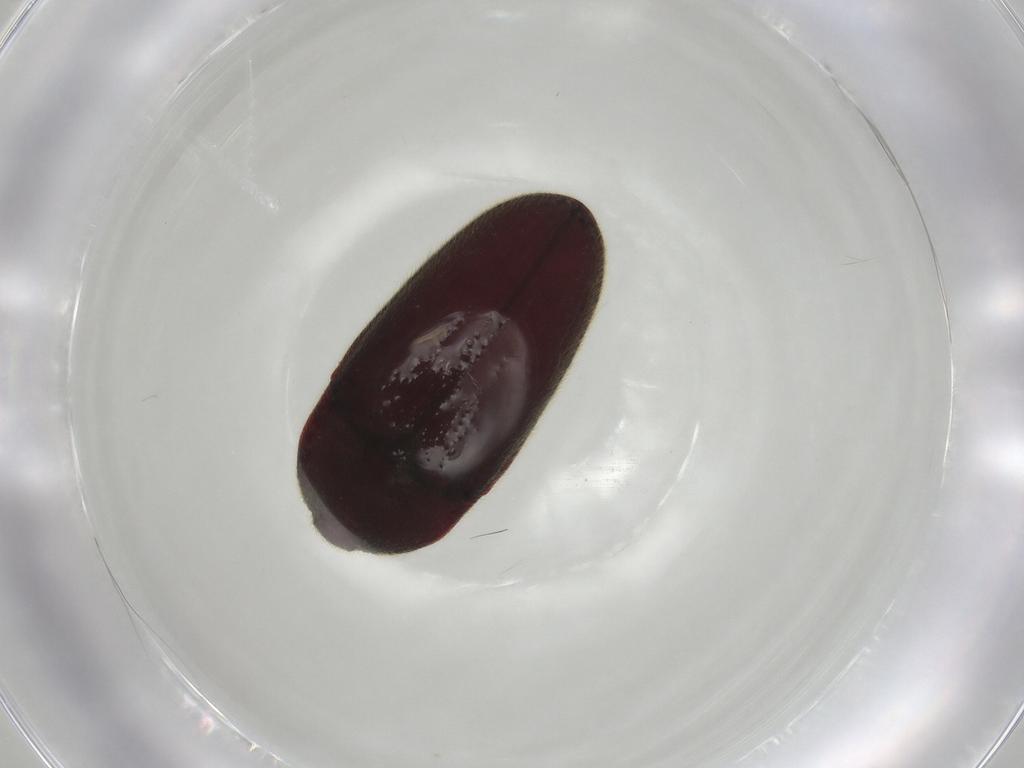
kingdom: Animalia
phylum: Arthropoda
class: Insecta
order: Coleoptera
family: Throscidae
